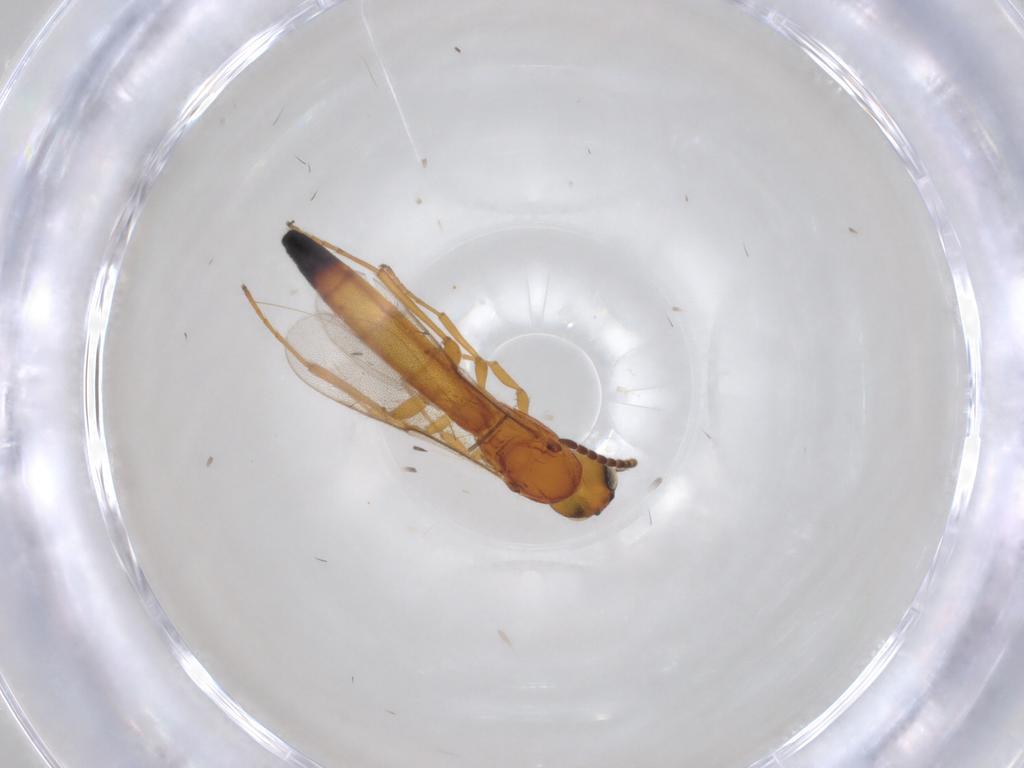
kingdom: Animalia
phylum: Arthropoda
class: Insecta
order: Hymenoptera
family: Scelionidae
